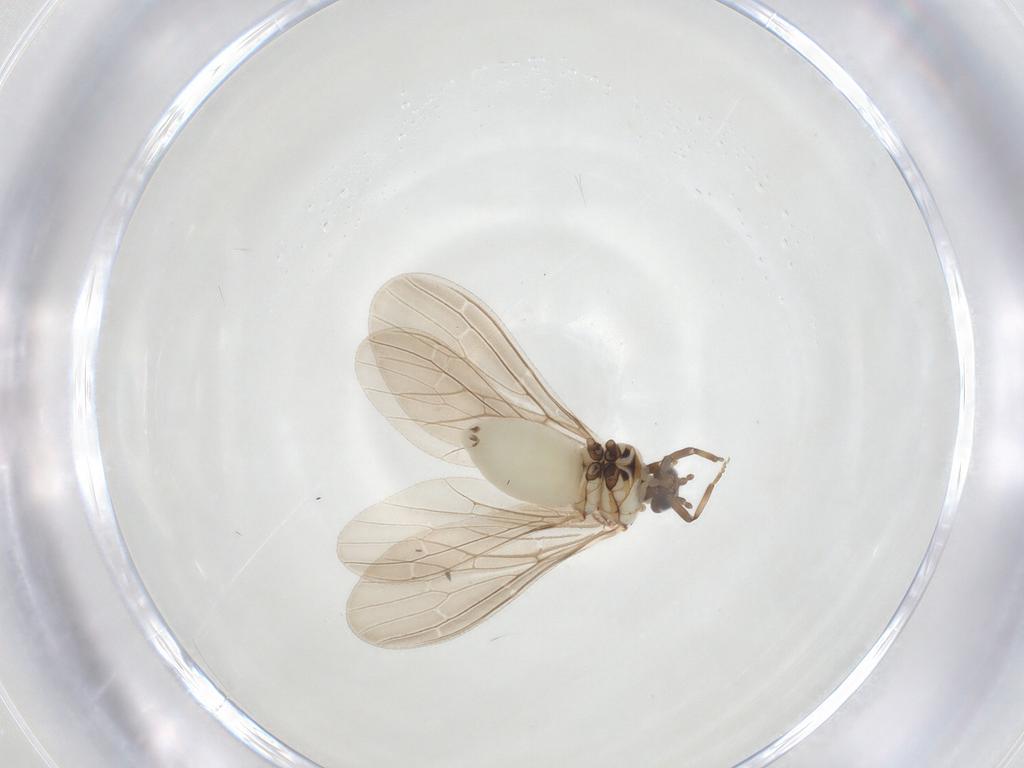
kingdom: Animalia
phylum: Arthropoda
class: Insecta
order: Neuroptera
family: Coniopterygidae
